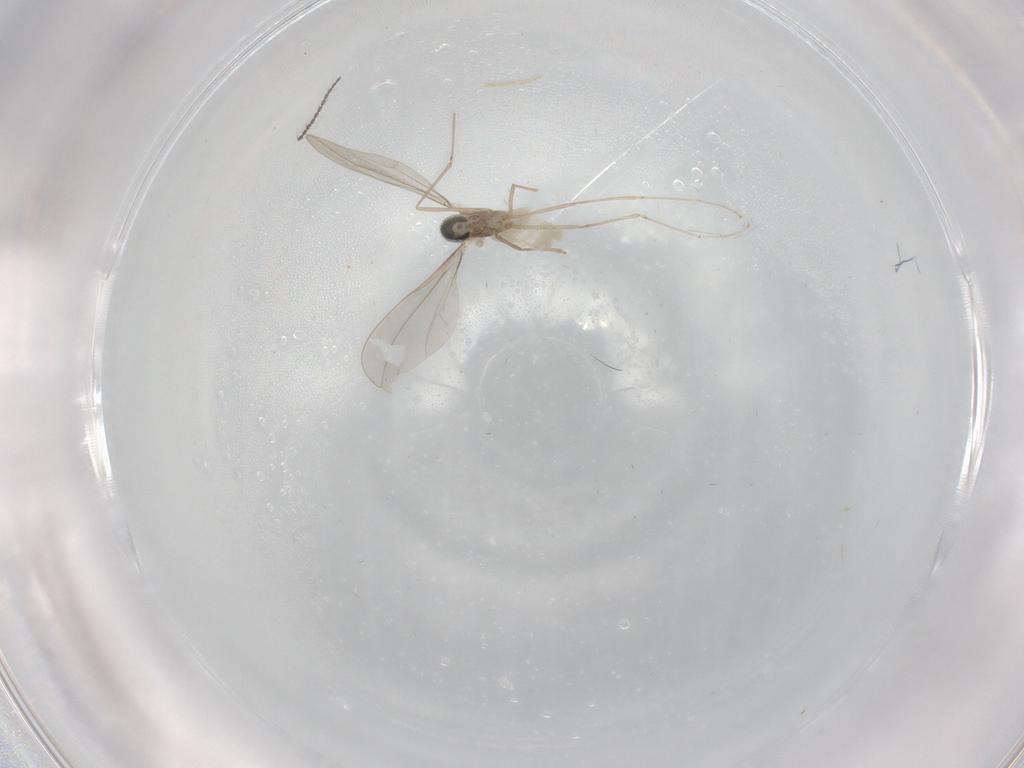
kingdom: Animalia
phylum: Arthropoda
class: Insecta
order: Diptera
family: Cecidomyiidae
